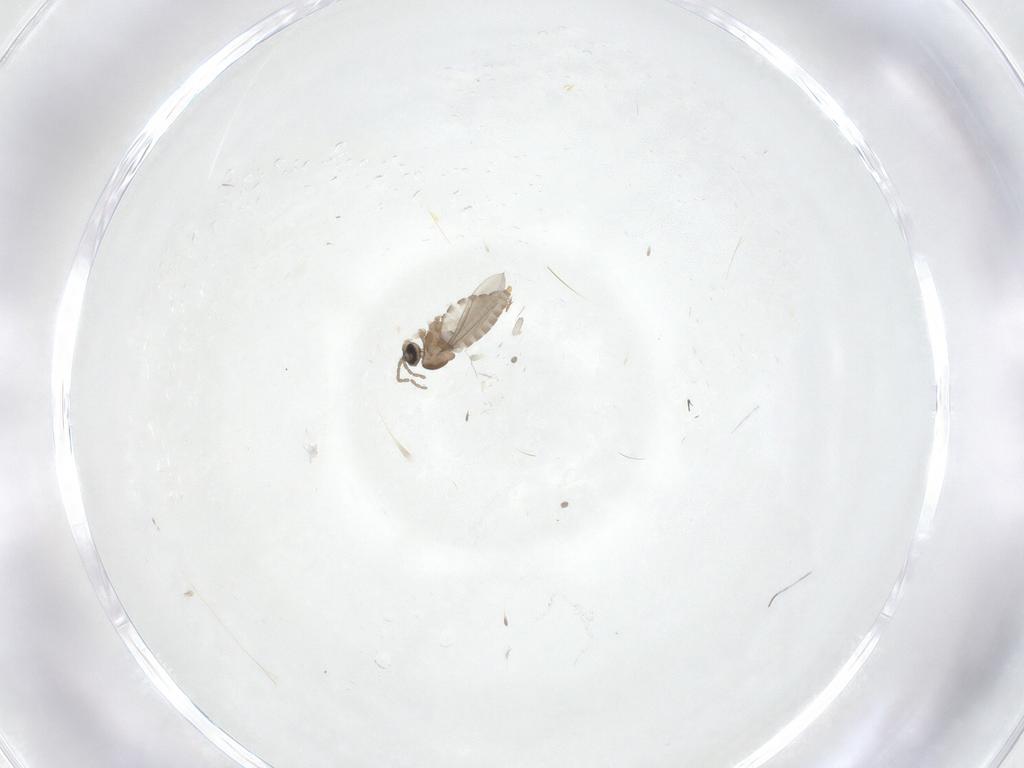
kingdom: Animalia
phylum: Arthropoda
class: Insecta
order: Diptera
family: Cecidomyiidae
